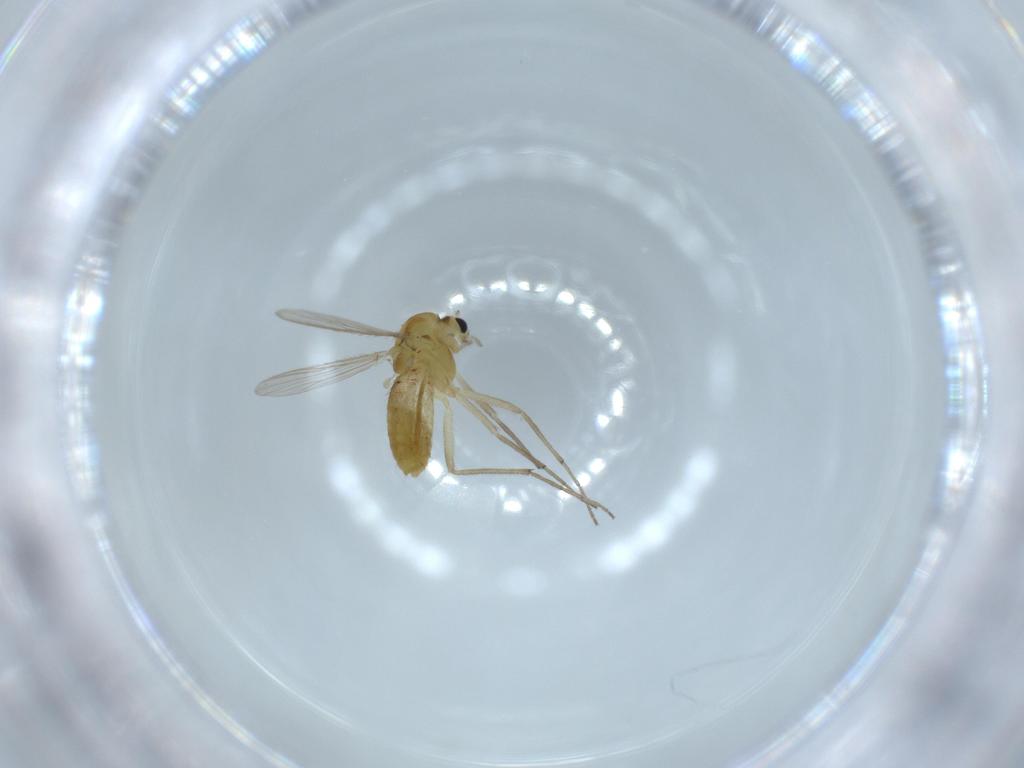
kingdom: Animalia
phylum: Arthropoda
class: Insecta
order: Diptera
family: Chironomidae
